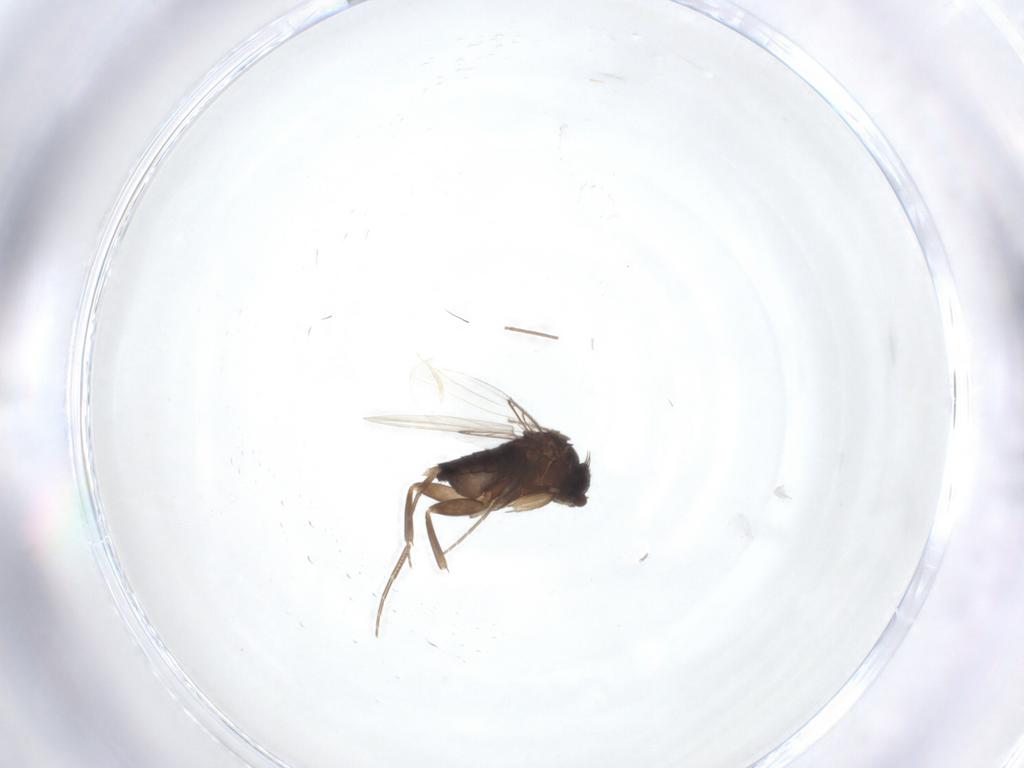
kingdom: Animalia
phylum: Arthropoda
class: Insecta
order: Diptera
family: Phoridae
